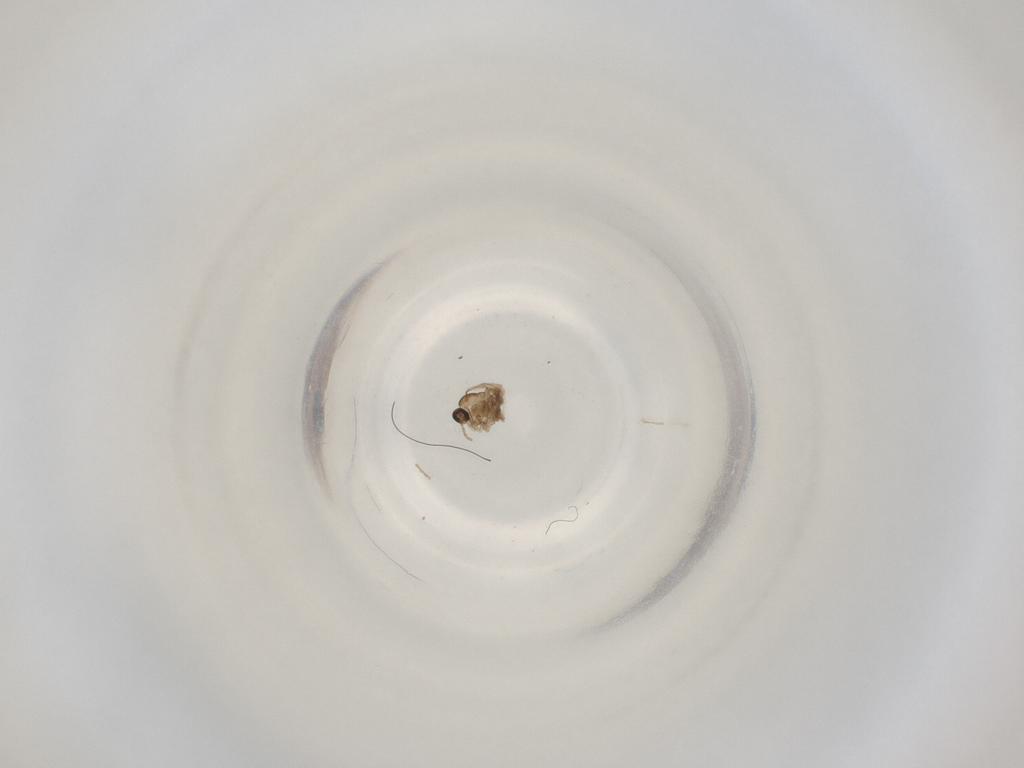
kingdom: Animalia
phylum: Arthropoda
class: Insecta
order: Diptera
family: Cecidomyiidae
